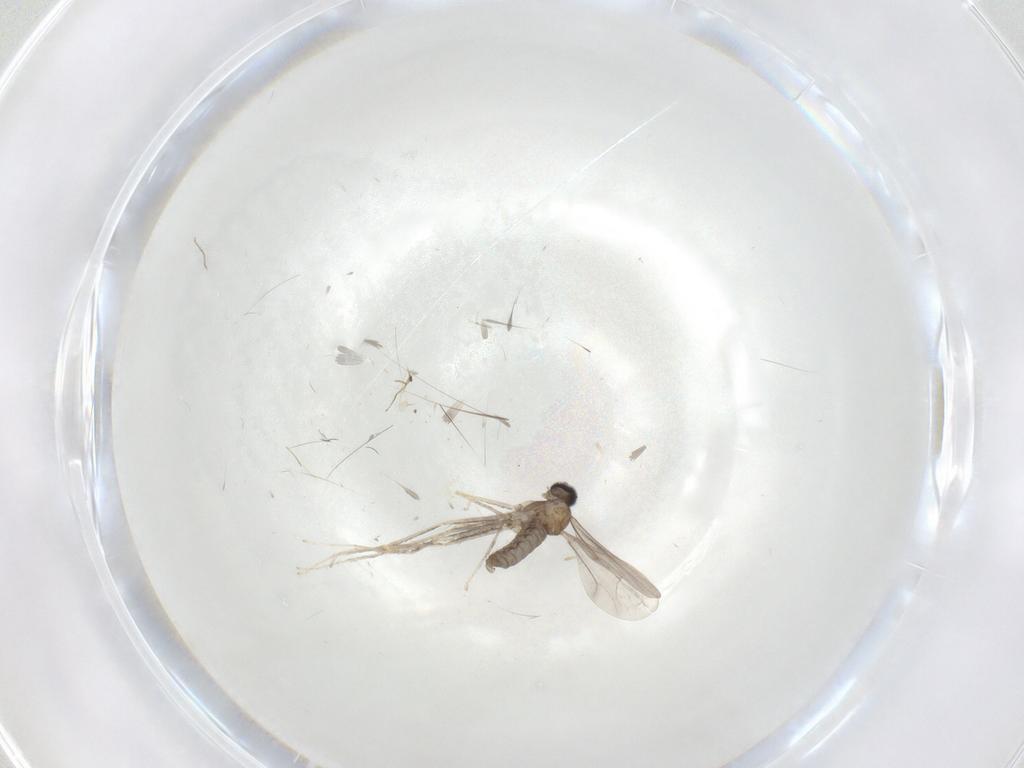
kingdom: Animalia
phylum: Arthropoda
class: Insecta
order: Diptera
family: Cecidomyiidae
